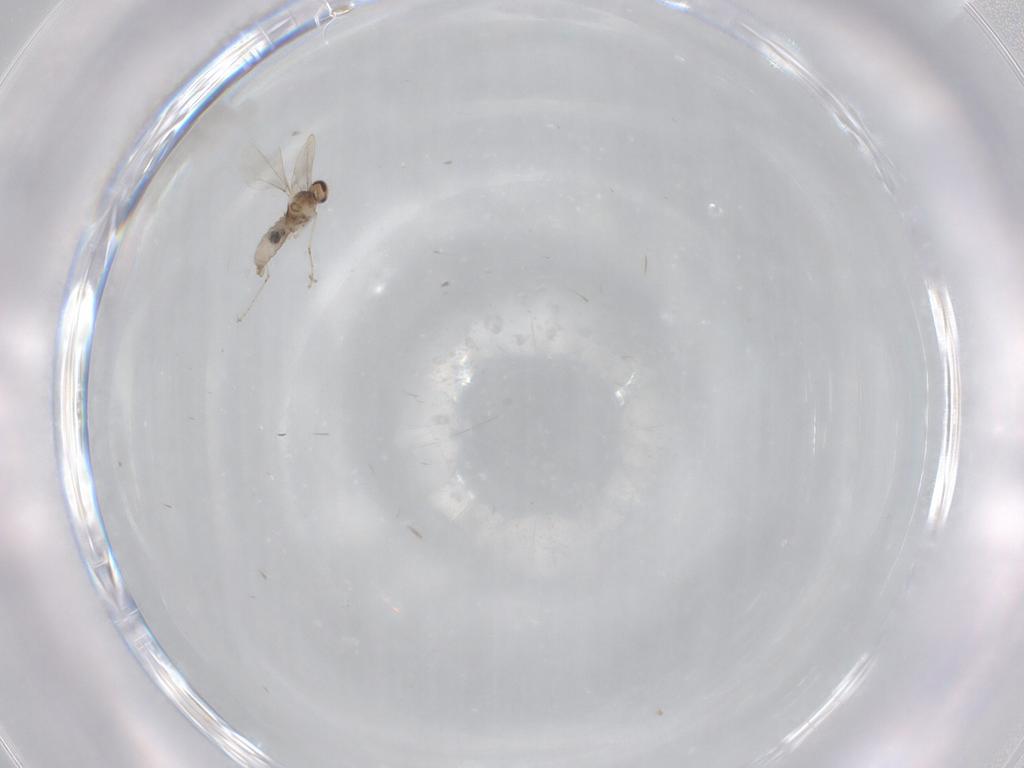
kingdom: Animalia
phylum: Arthropoda
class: Insecta
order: Diptera
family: Cecidomyiidae
